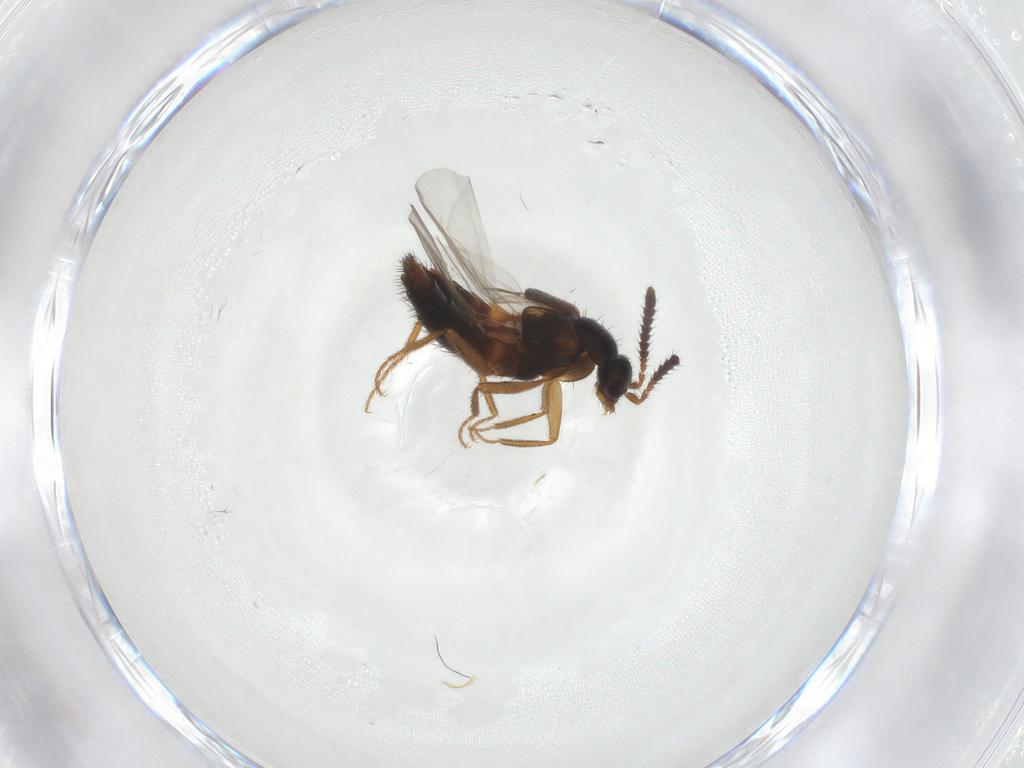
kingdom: Animalia
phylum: Arthropoda
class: Insecta
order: Coleoptera
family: Staphylinidae
